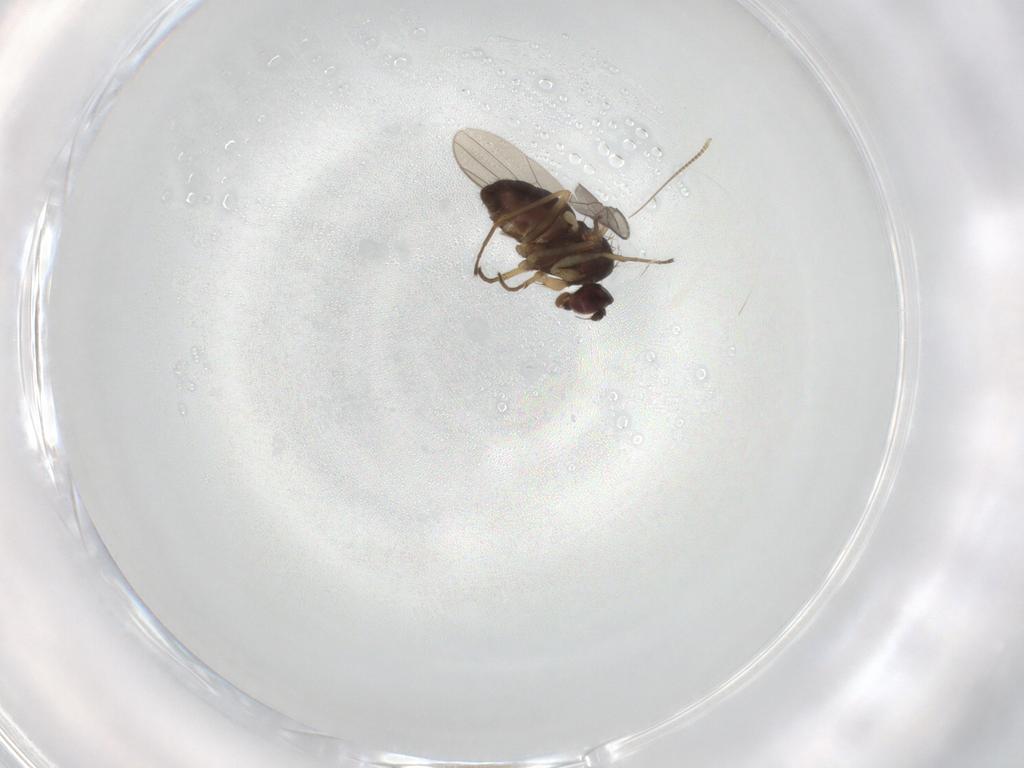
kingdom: Animalia
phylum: Arthropoda
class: Insecta
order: Diptera
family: Dolichopodidae
